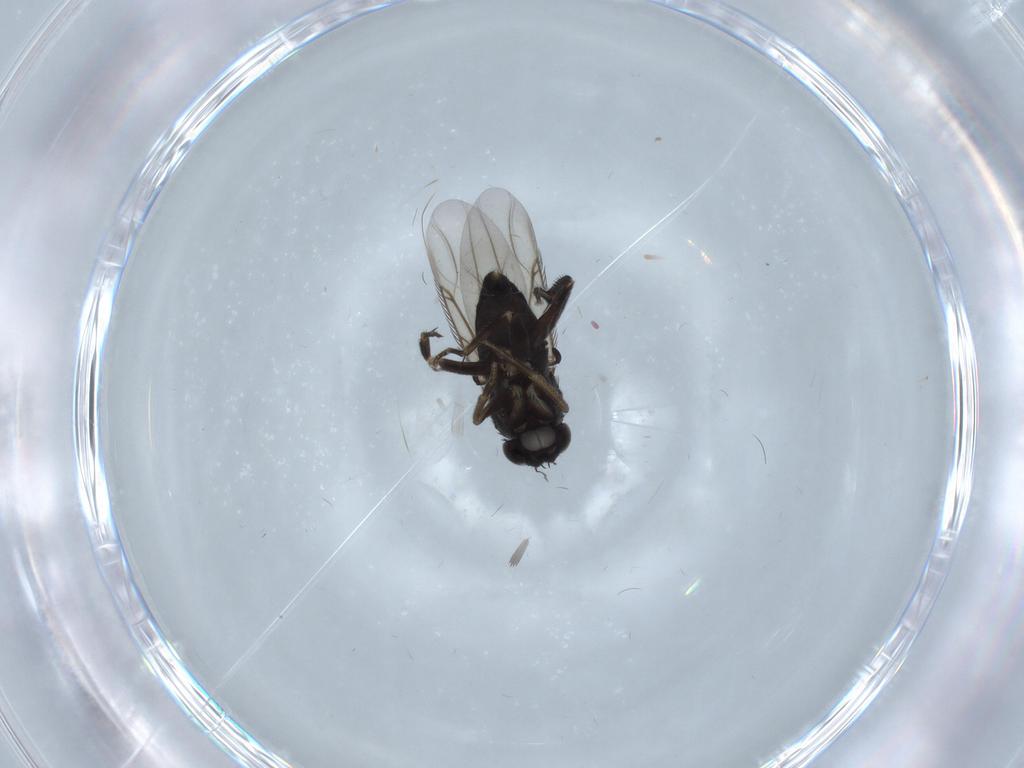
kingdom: Animalia
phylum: Arthropoda
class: Insecta
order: Diptera
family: Phoridae
